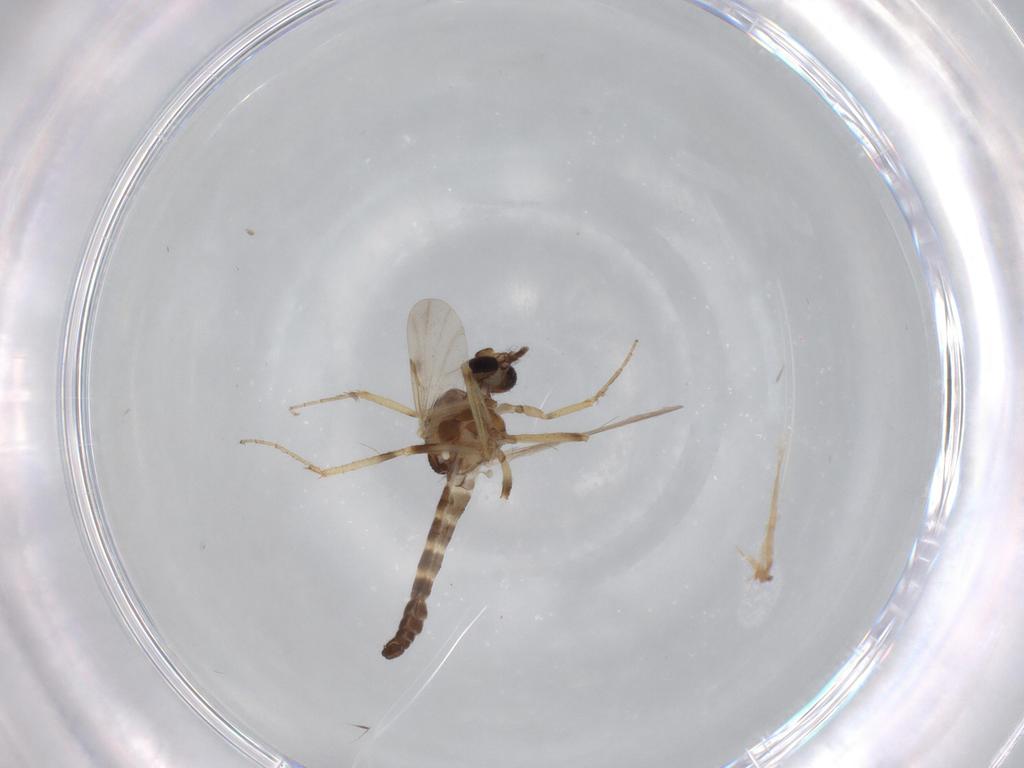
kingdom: Animalia
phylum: Arthropoda
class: Insecta
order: Diptera
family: Ceratopogonidae
